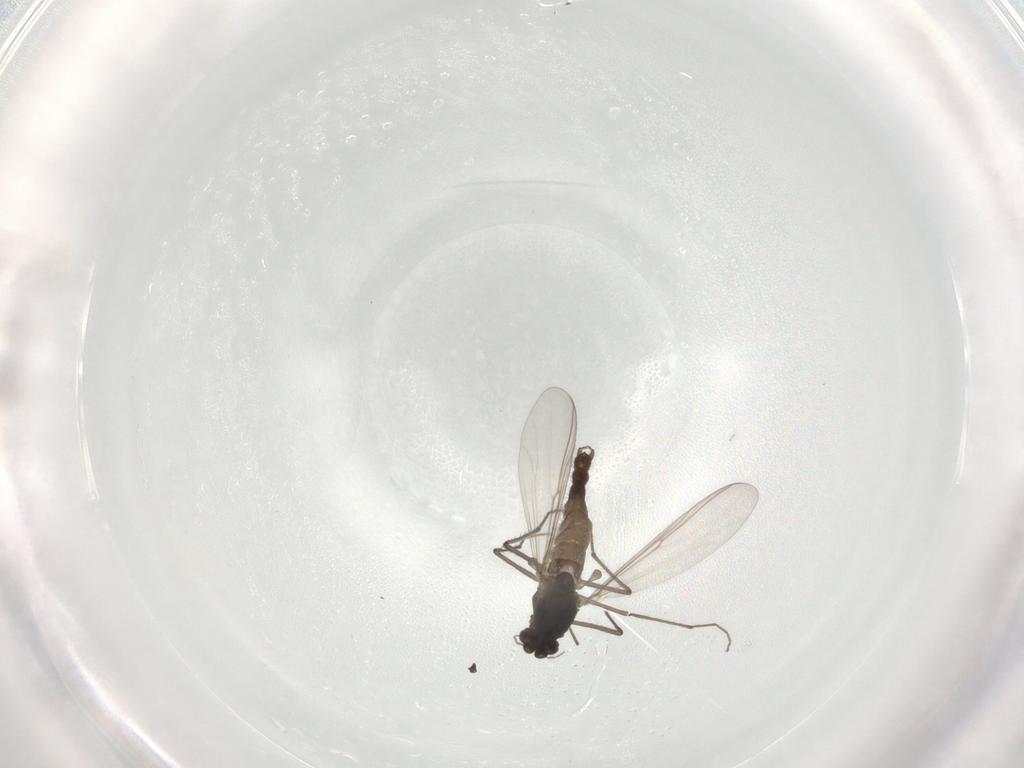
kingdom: Animalia
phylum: Arthropoda
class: Insecta
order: Diptera
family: Chironomidae
